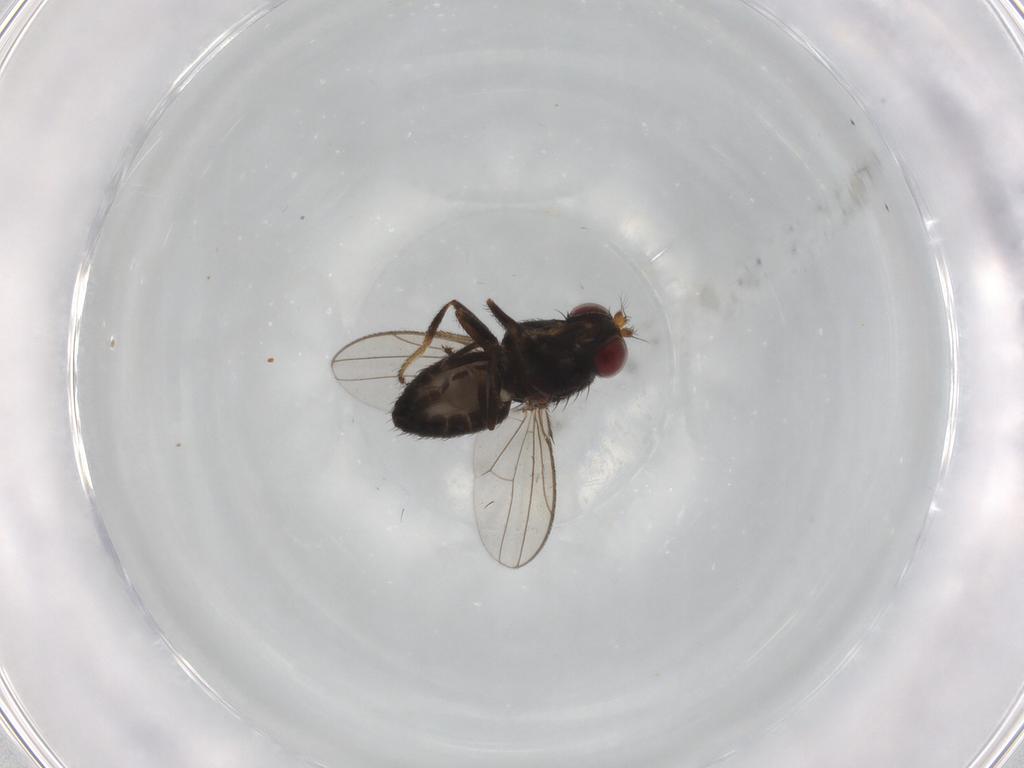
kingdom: Animalia
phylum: Arthropoda
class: Insecta
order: Diptera
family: Ephydridae
